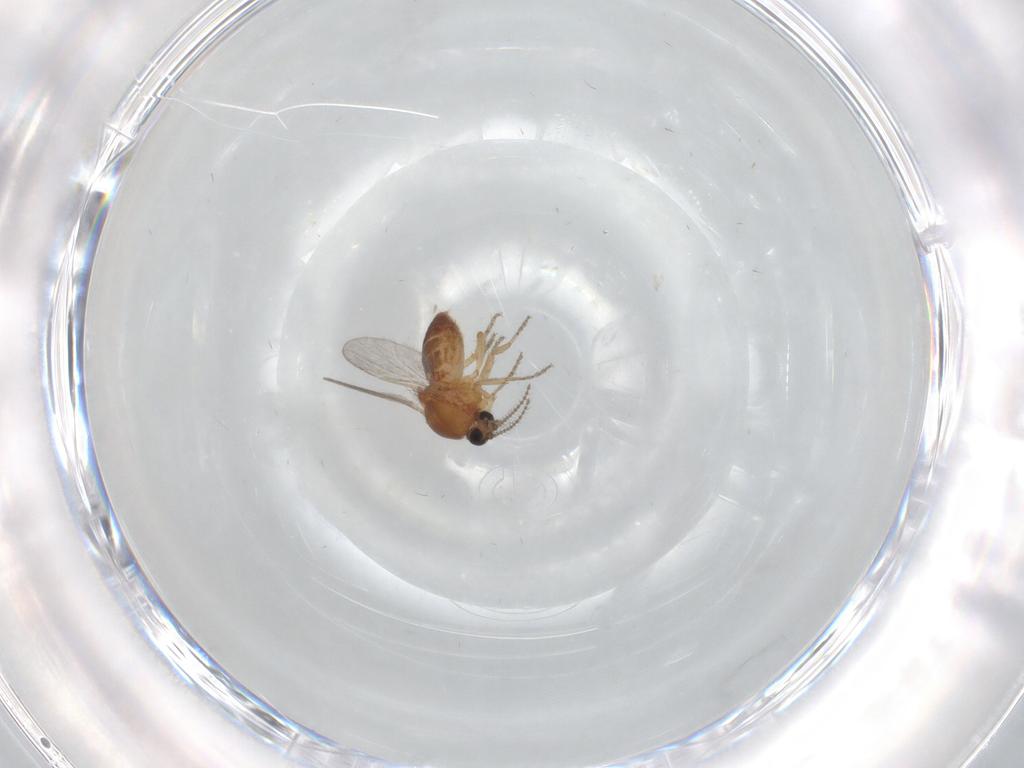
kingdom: Animalia
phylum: Arthropoda
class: Insecta
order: Diptera
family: Ceratopogonidae
